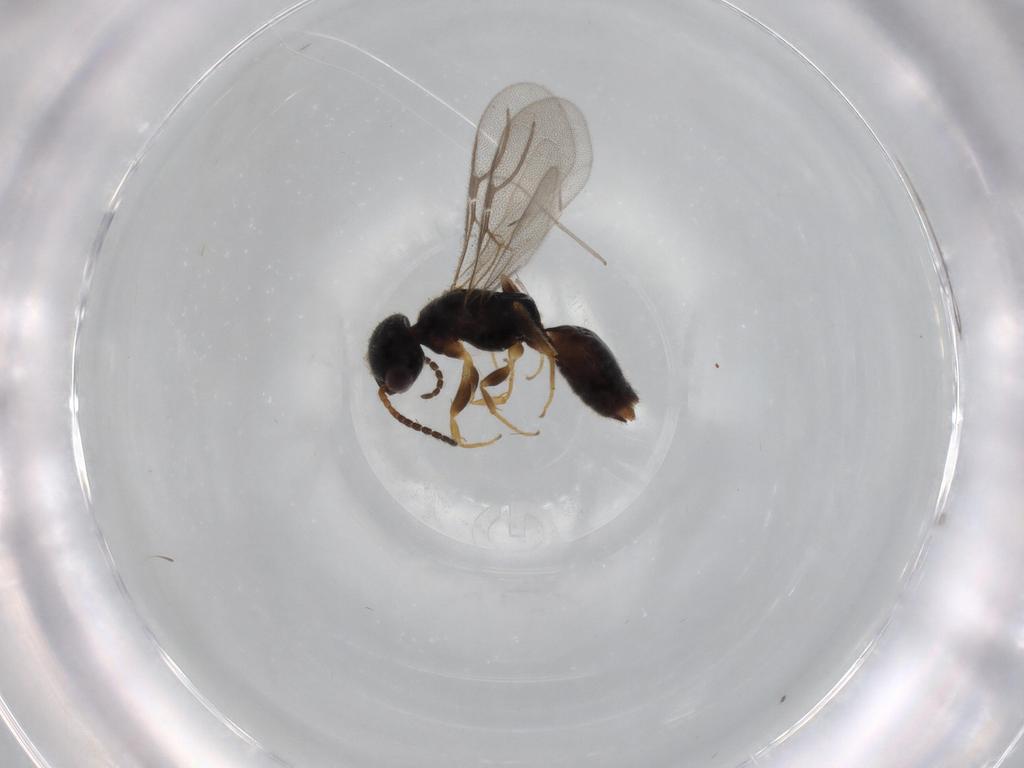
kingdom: Animalia
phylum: Arthropoda
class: Insecta
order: Hymenoptera
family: Bethylidae
